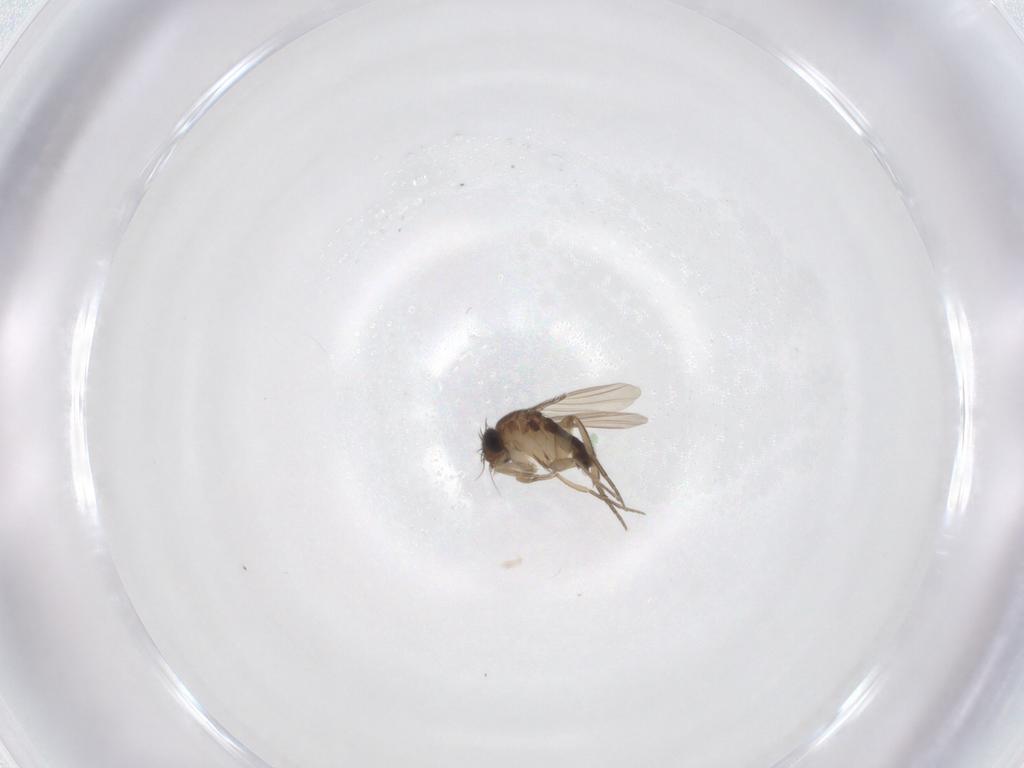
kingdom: Animalia
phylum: Arthropoda
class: Insecta
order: Diptera
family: Phoridae
